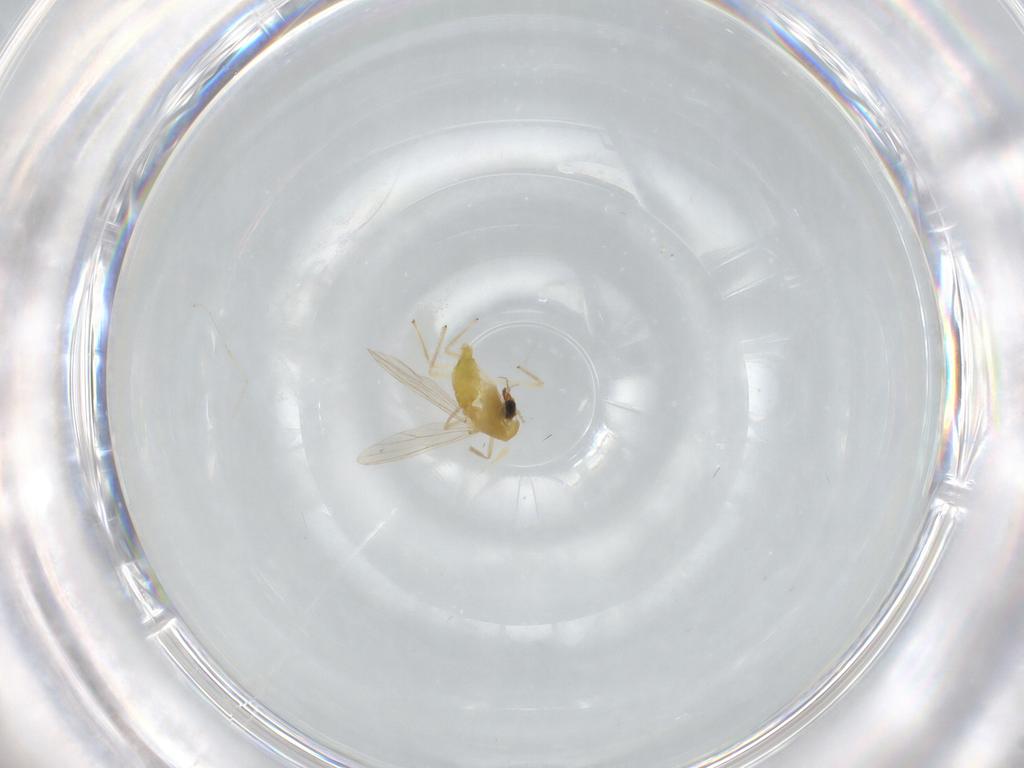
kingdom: Animalia
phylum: Arthropoda
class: Insecta
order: Diptera
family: Chironomidae
